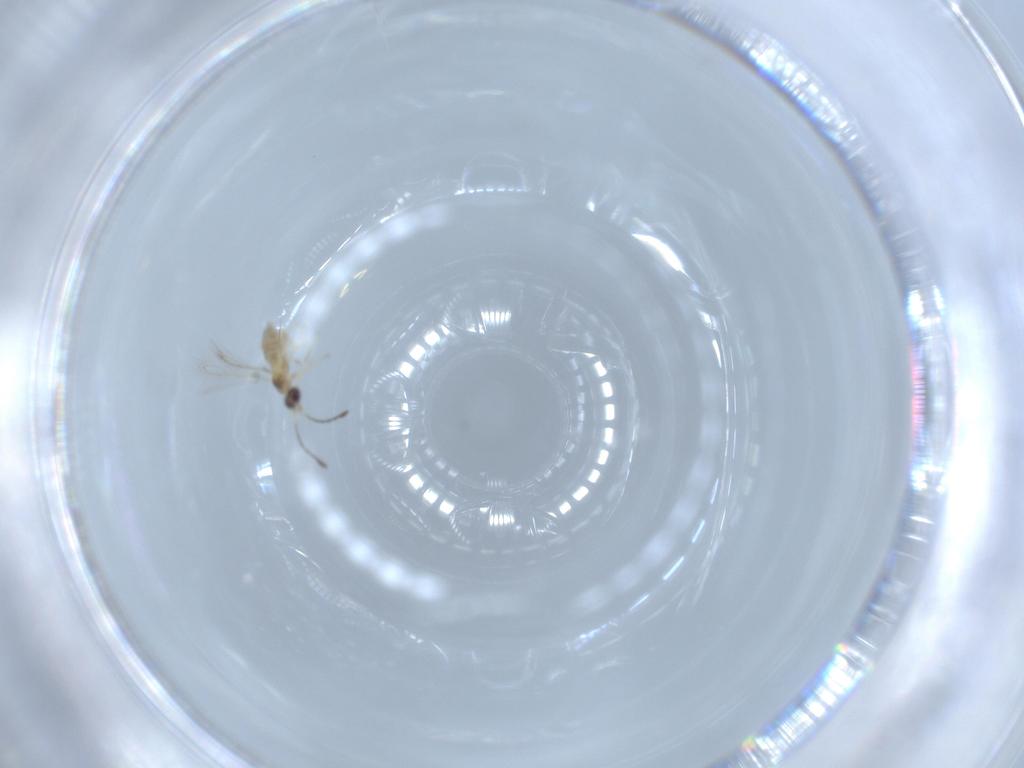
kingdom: Animalia
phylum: Arthropoda
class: Insecta
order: Hymenoptera
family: Mymaridae
